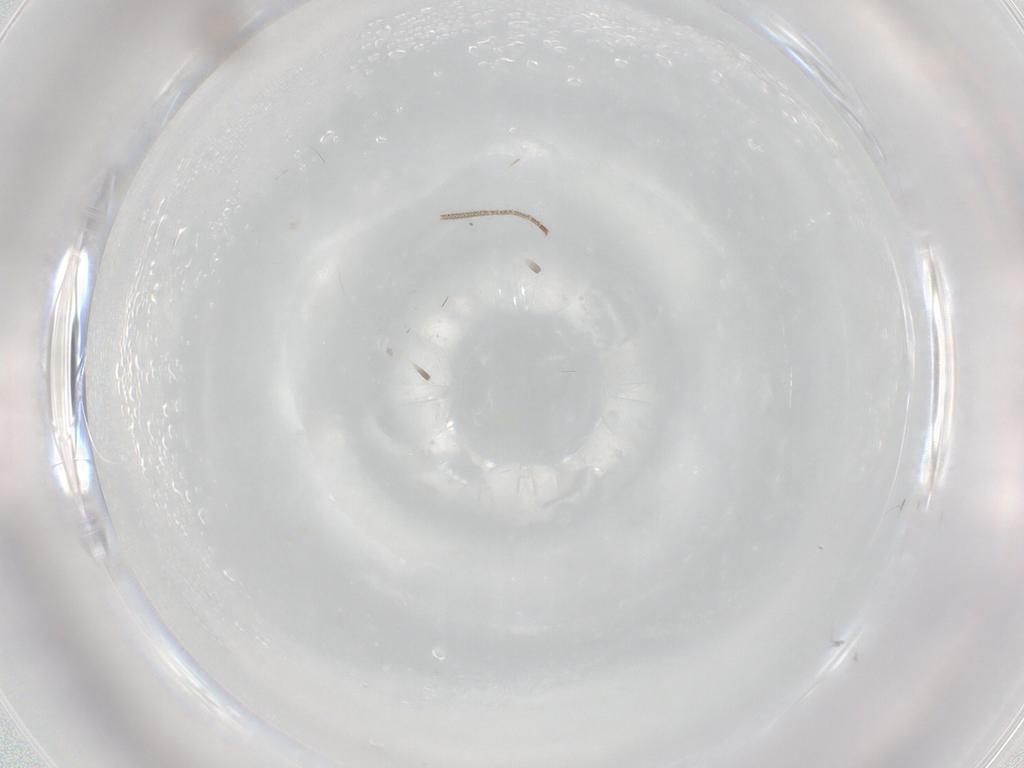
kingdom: Animalia
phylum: Arthropoda
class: Insecta
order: Diptera
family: Cecidomyiidae
